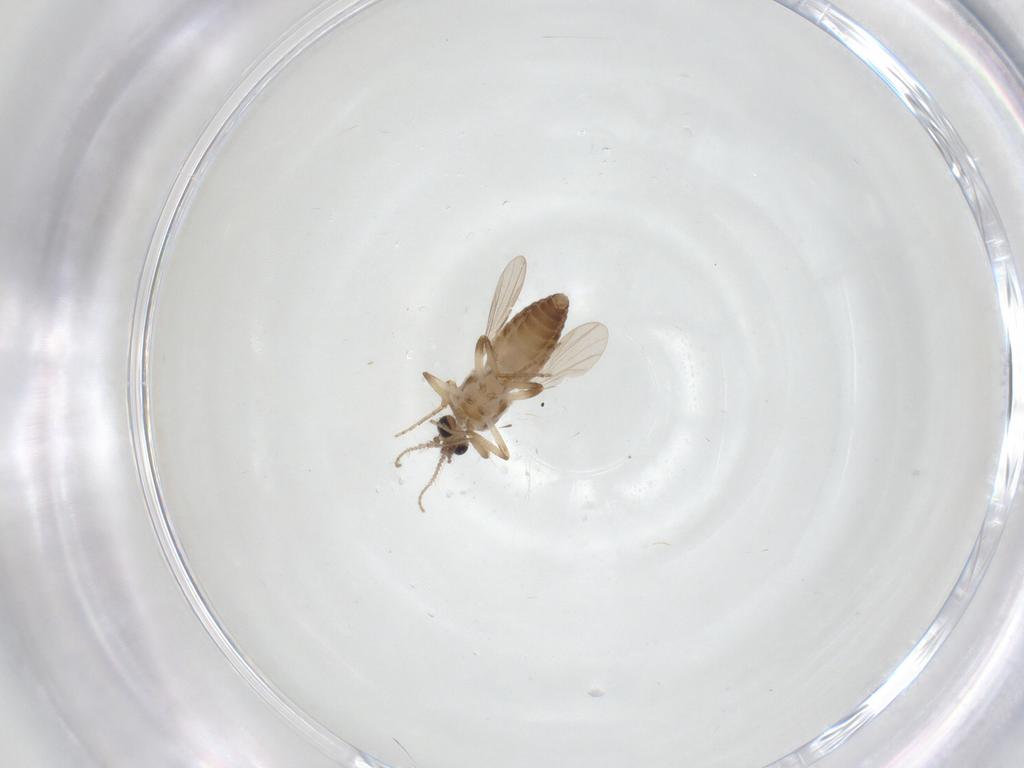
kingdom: Animalia
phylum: Arthropoda
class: Insecta
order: Diptera
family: Ceratopogonidae
